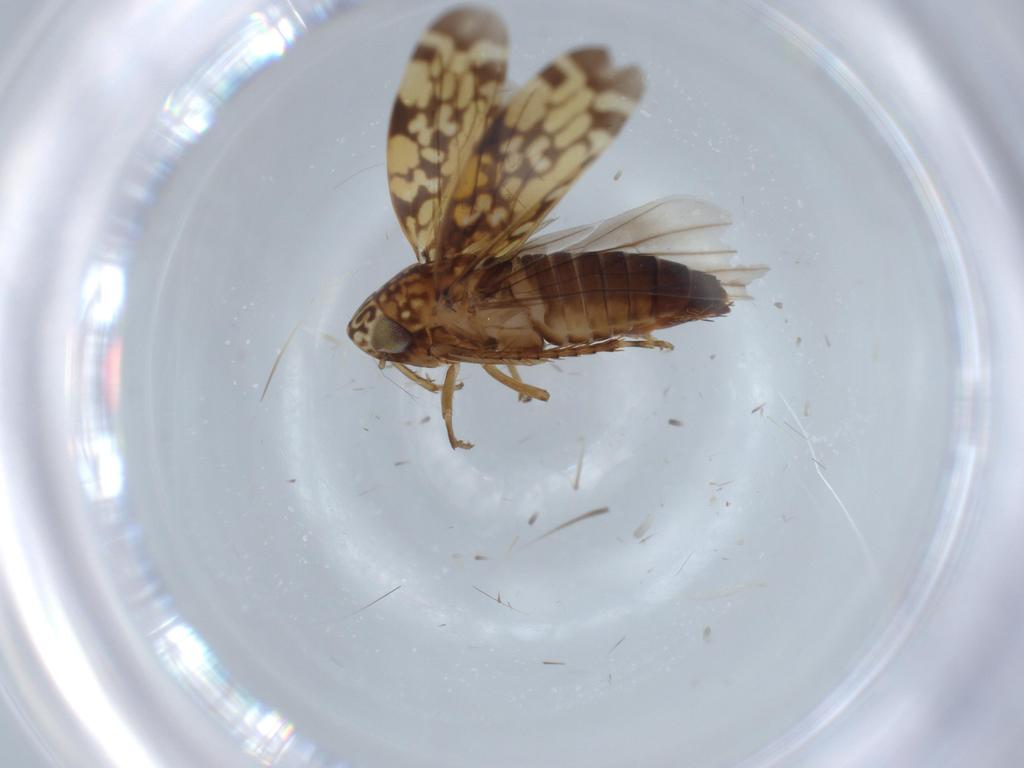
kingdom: Animalia
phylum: Arthropoda
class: Insecta
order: Hemiptera
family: Cicadellidae
